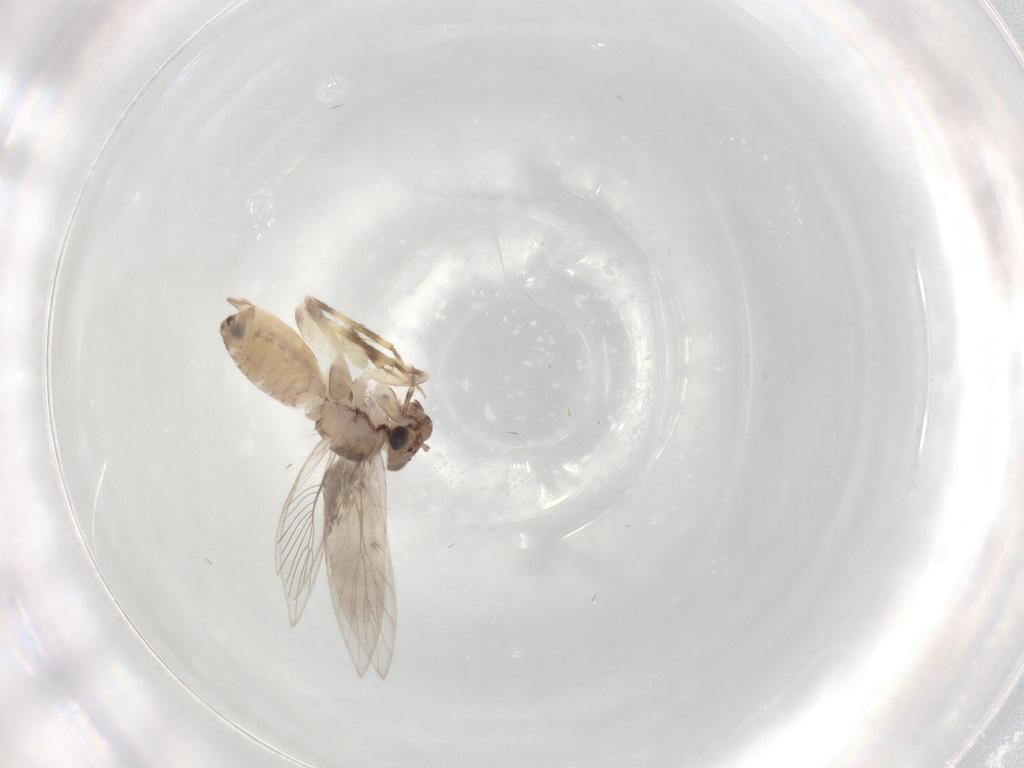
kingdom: Animalia
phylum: Arthropoda
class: Insecta
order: Psocodea
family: Lepidopsocidae
